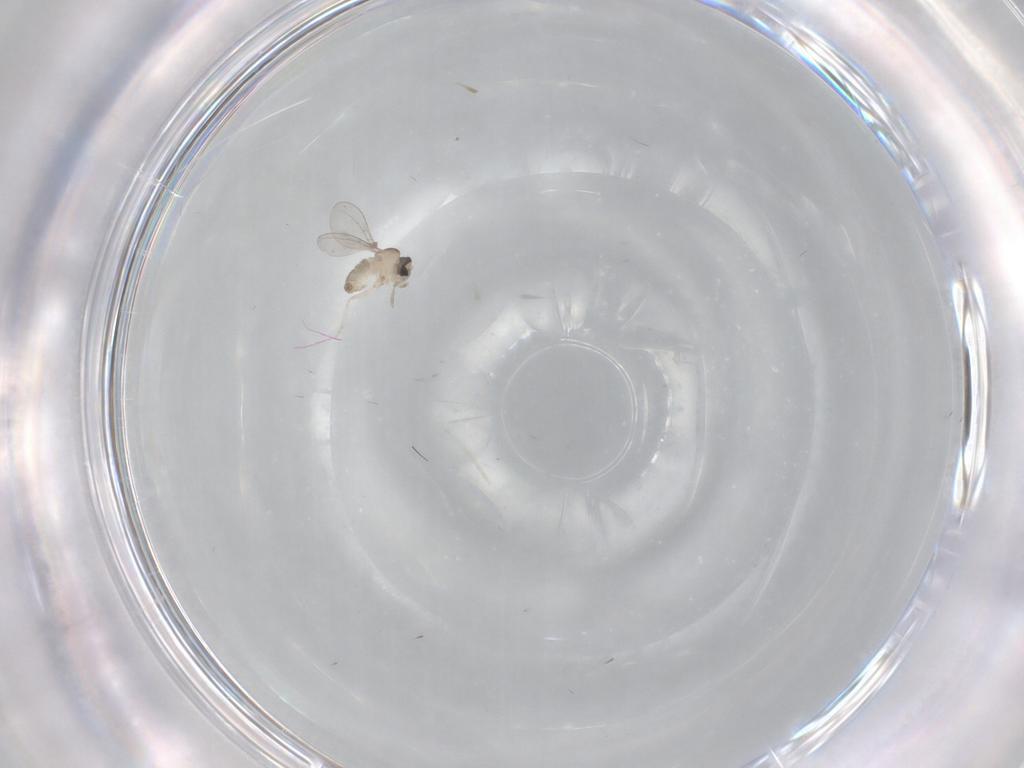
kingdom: Animalia
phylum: Arthropoda
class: Insecta
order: Diptera
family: Cecidomyiidae
